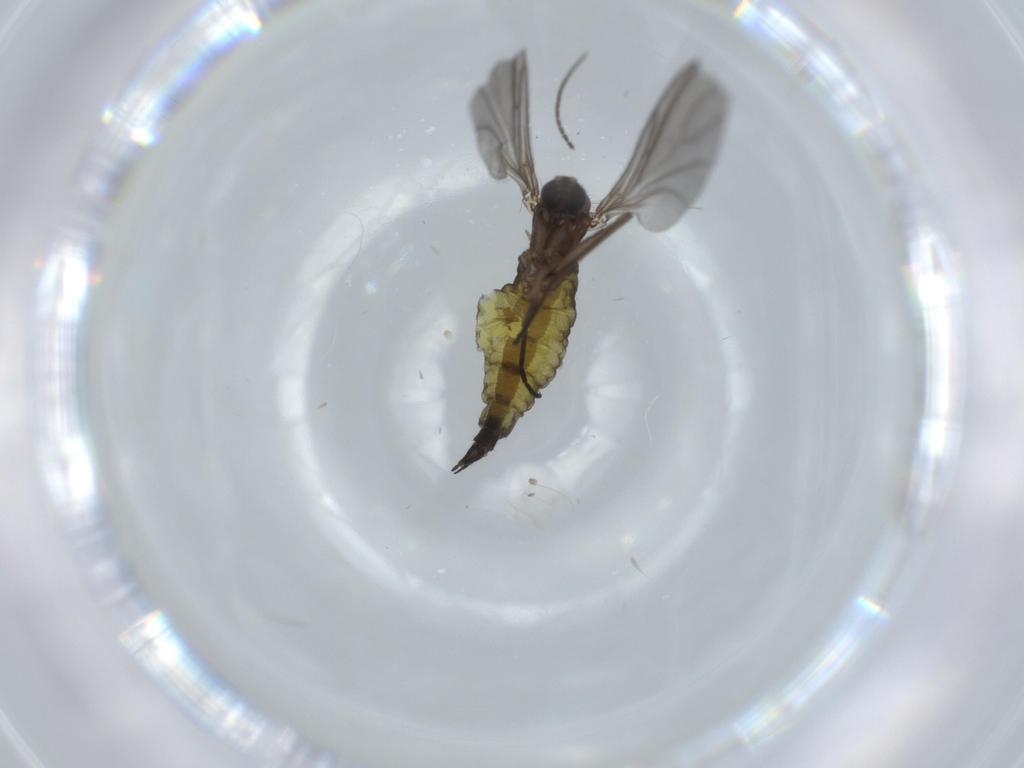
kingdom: Animalia
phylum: Arthropoda
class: Insecta
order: Diptera
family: Sciaridae
